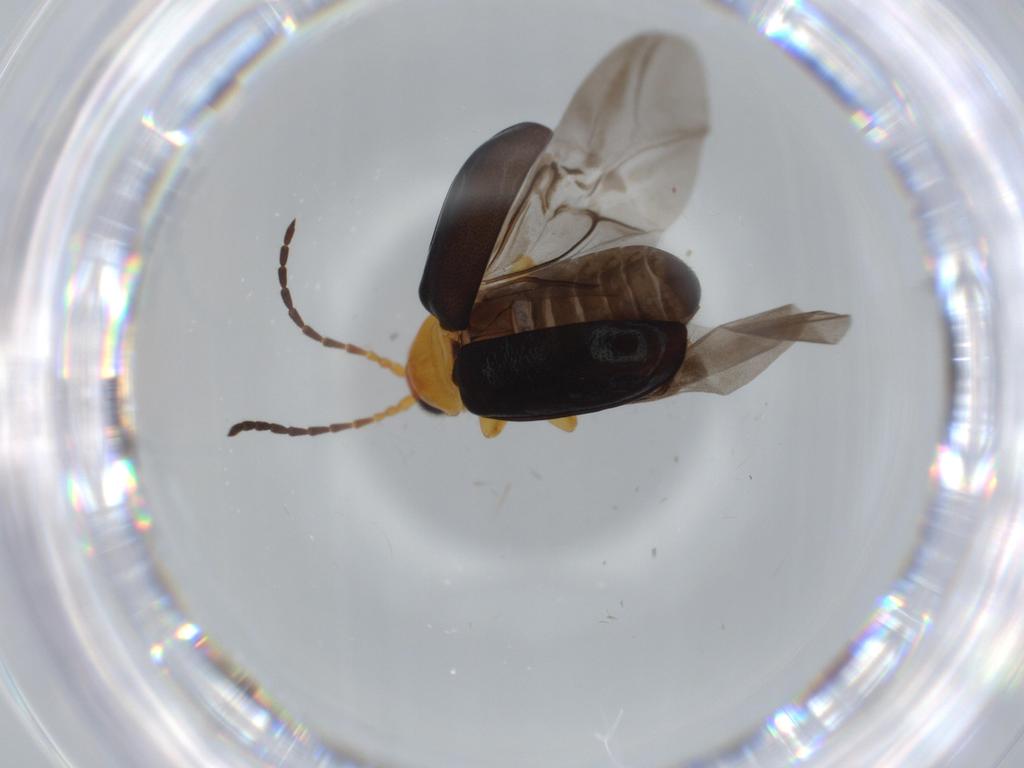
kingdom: Animalia
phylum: Arthropoda
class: Insecta
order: Coleoptera
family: Chrysomelidae
